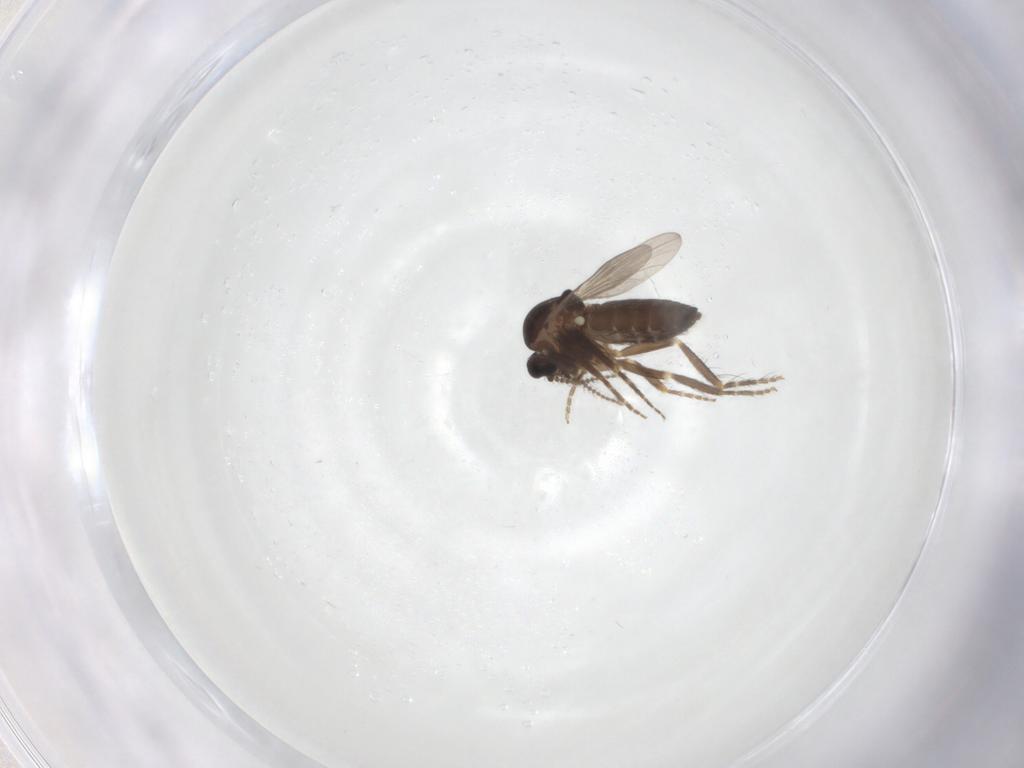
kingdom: Animalia
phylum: Arthropoda
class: Insecta
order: Diptera
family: Ceratopogonidae
